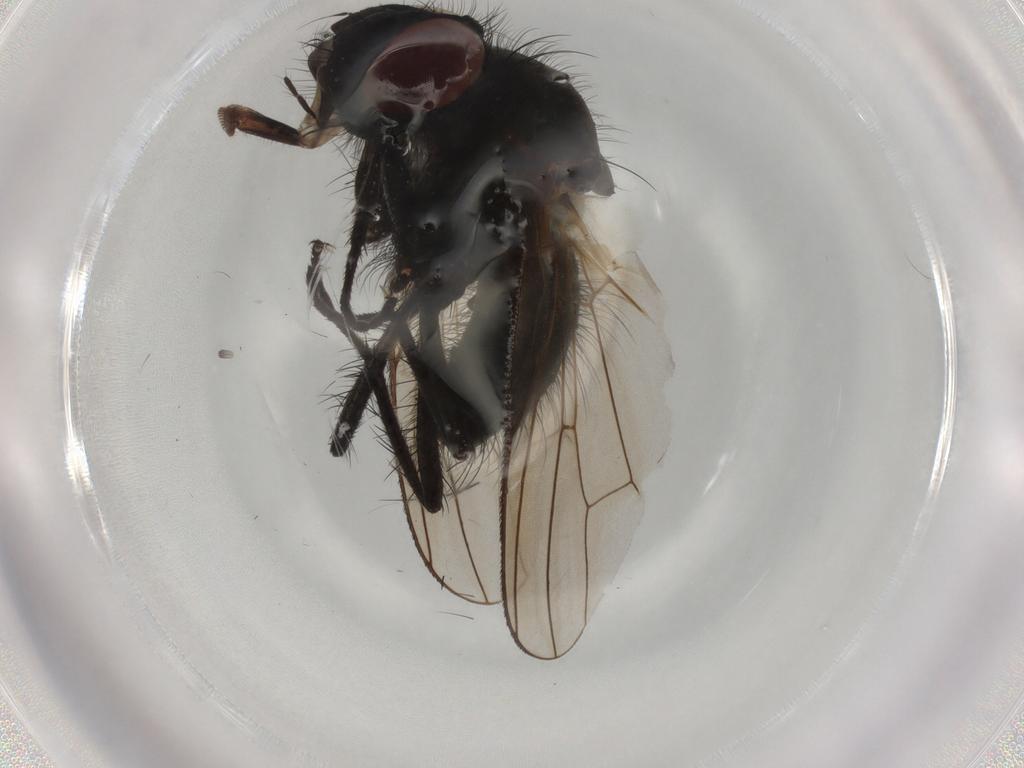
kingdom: Animalia
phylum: Arthropoda
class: Insecta
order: Diptera
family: Anthomyiidae
